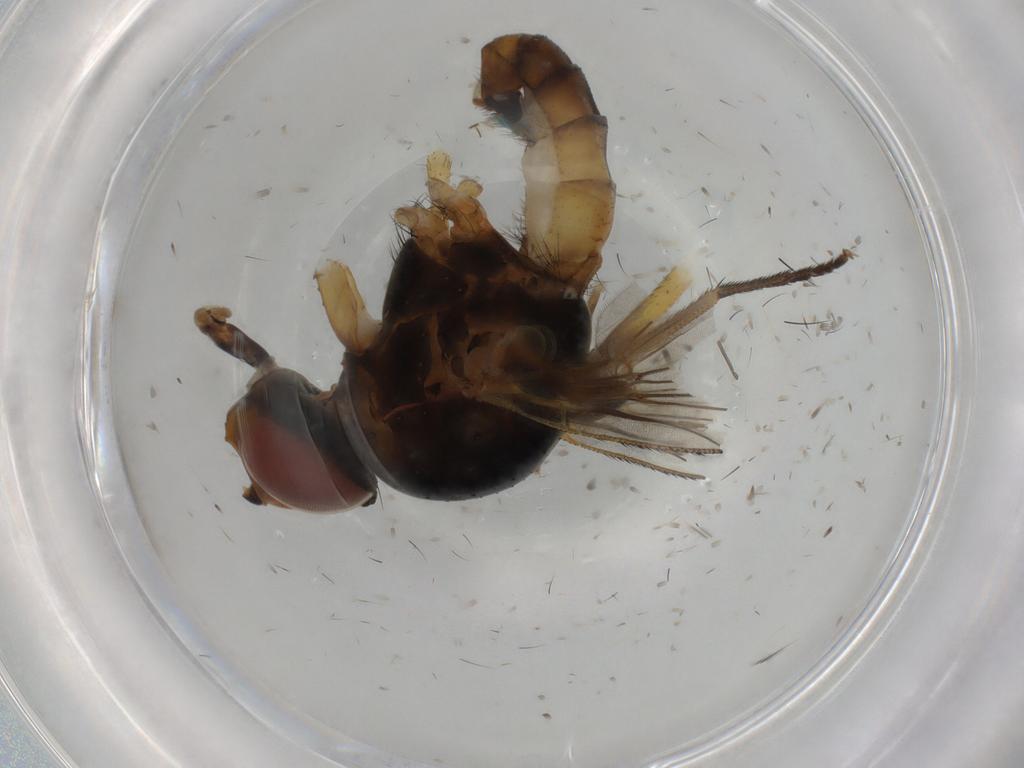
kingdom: Animalia
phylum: Arthropoda
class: Insecta
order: Diptera
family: Anthomyiidae
